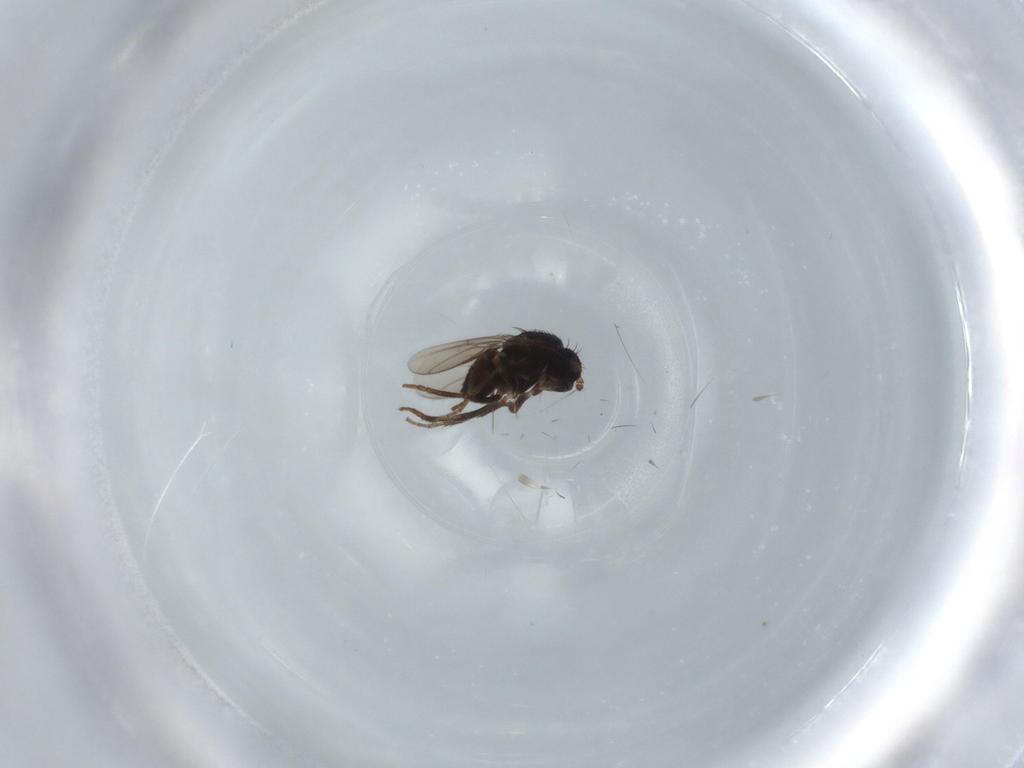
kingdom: Animalia
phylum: Arthropoda
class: Insecta
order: Diptera
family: Sphaeroceridae
